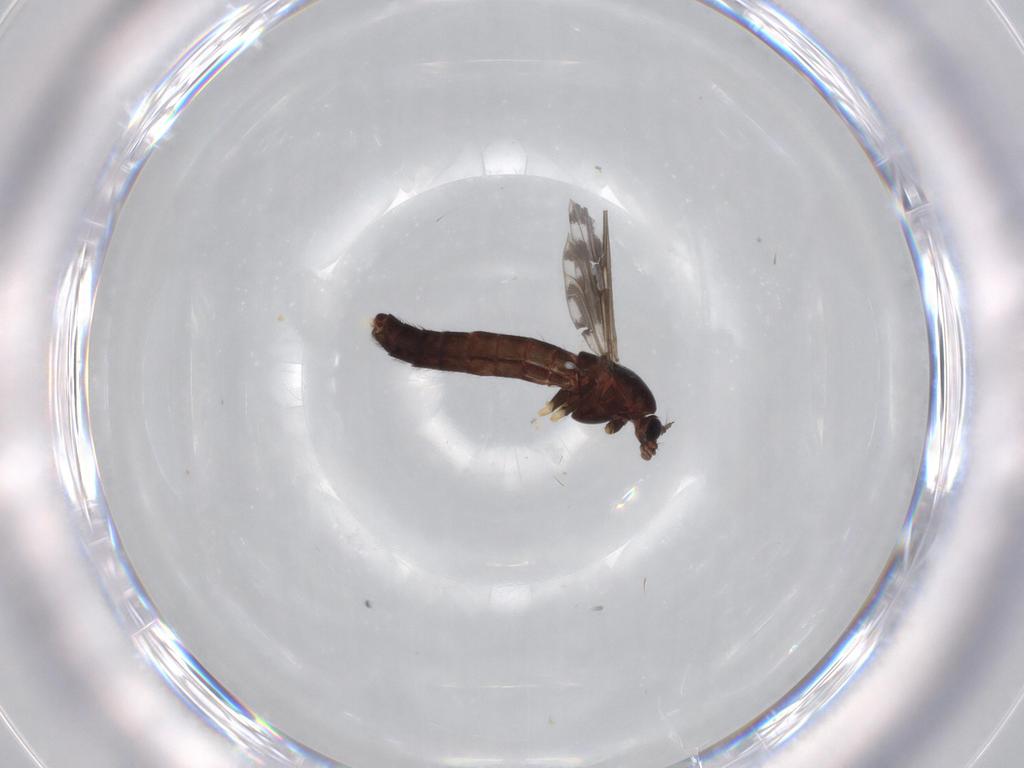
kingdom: Animalia
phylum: Arthropoda
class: Insecta
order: Diptera
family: Chironomidae
